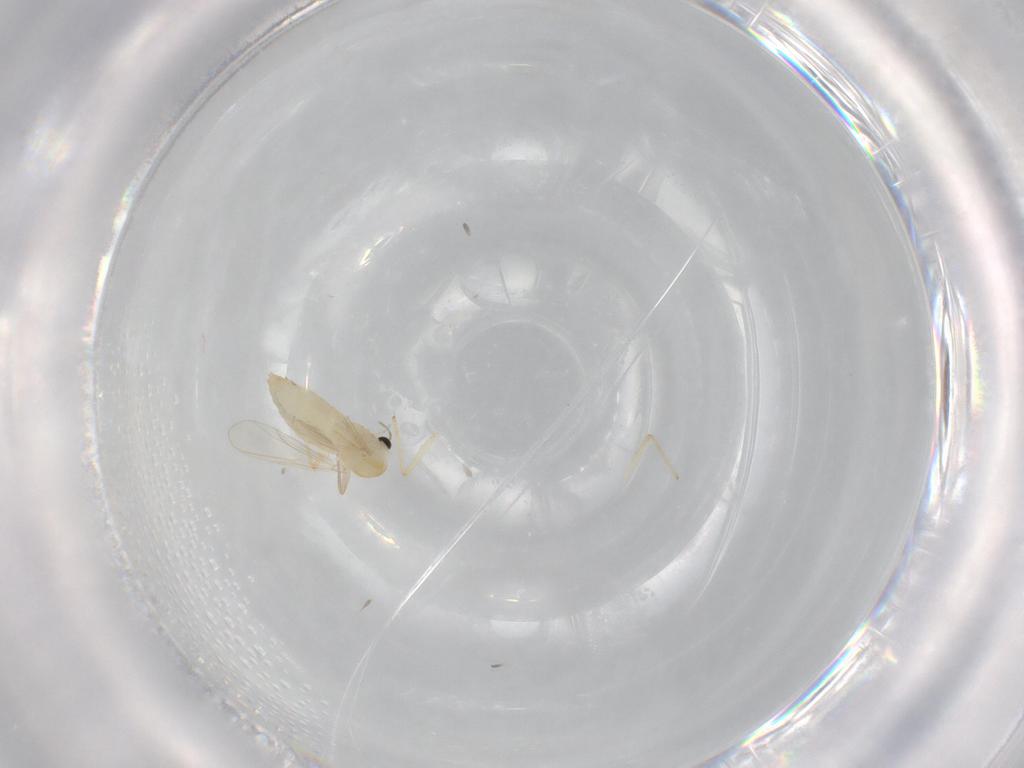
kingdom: Animalia
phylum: Arthropoda
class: Insecta
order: Diptera
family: Chironomidae
